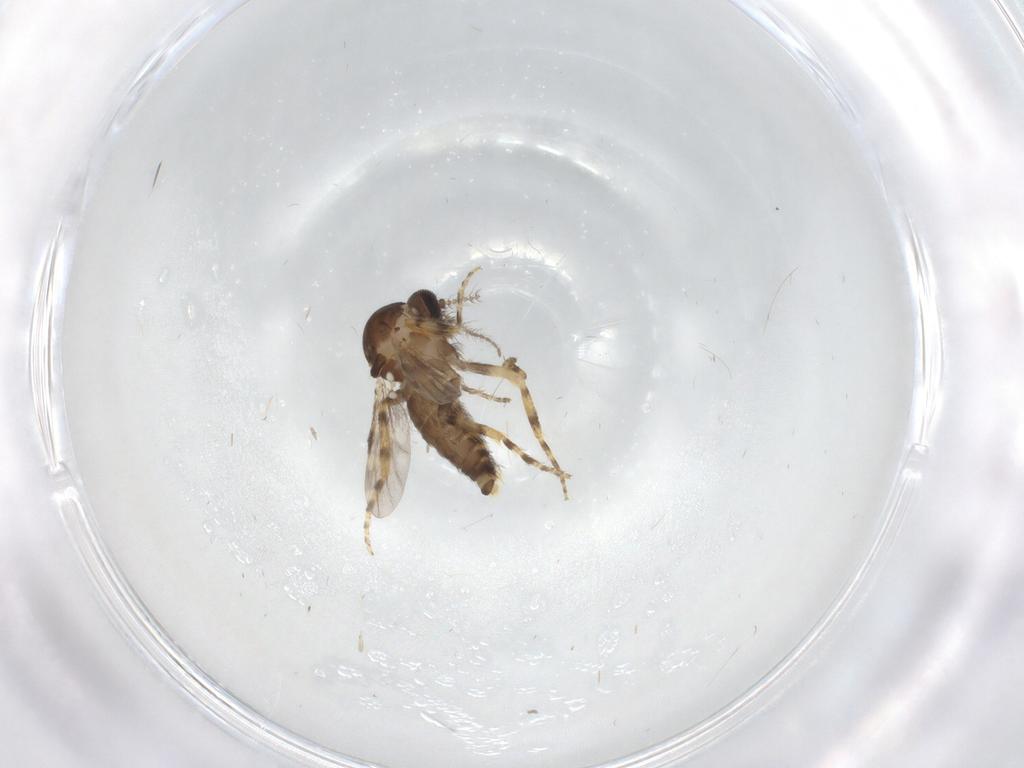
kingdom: Animalia
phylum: Arthropoda
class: Insecta
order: Diptera
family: Ceratopogonidae
